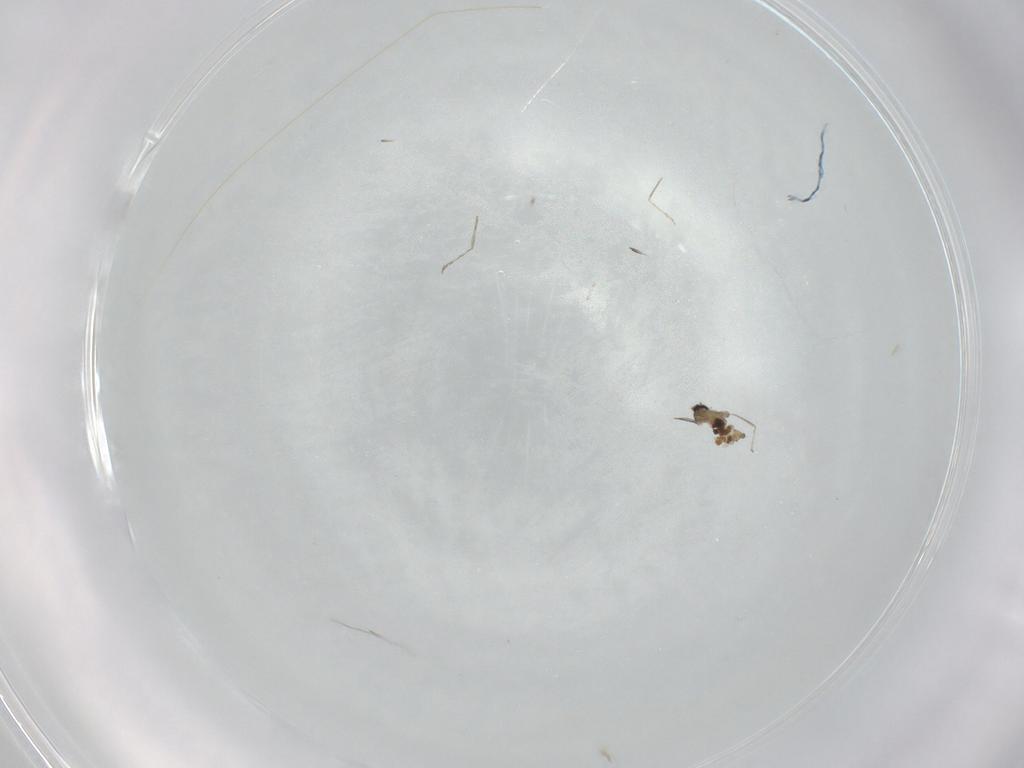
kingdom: Animalia
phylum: Arthropoda
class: Insecta
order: Diptera
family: Cecidomyiidae
